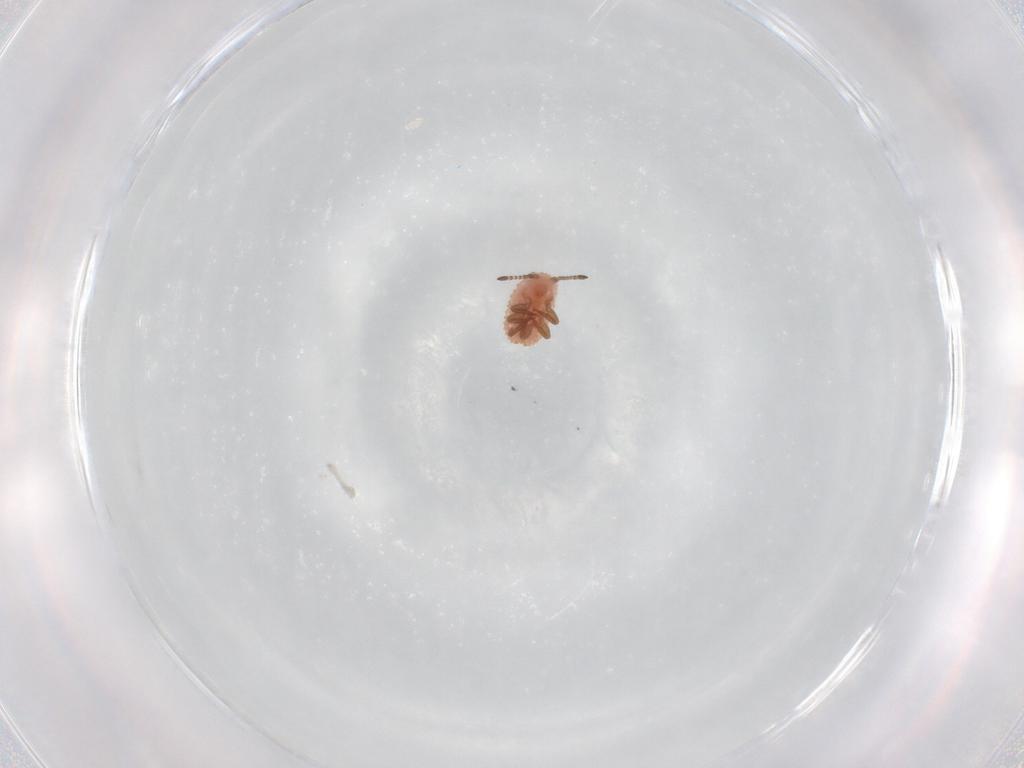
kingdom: Animalia
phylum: Arthropoda
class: Insecta
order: Hemiptera
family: Putoidae
